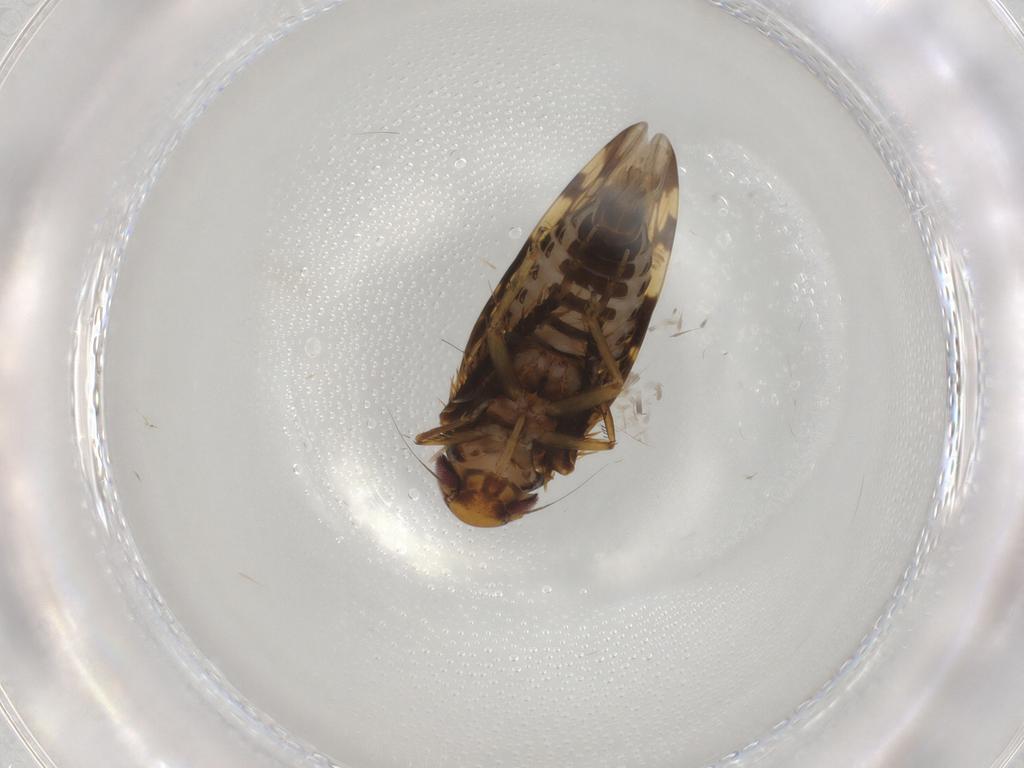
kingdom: Animalia
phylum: Arthropoda
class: Insecta
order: Hemiptera
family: Cicadellidae
